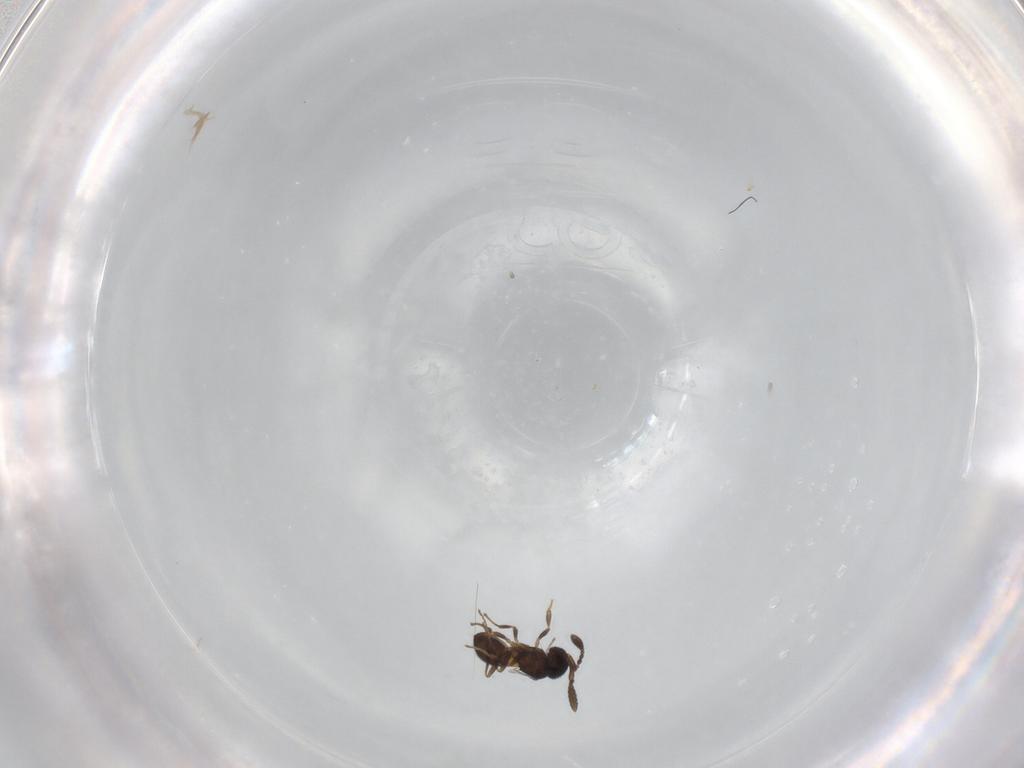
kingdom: Animalia
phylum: Arthropoda
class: Insecta
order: Hymenoptera
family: Scelionidae
